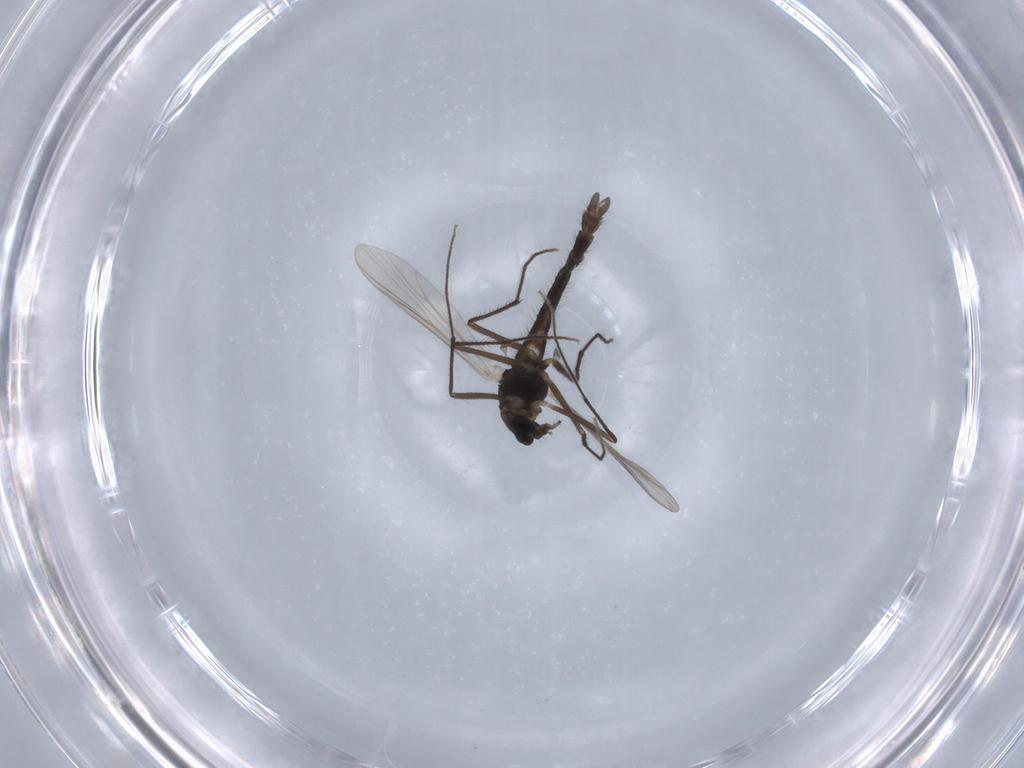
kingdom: Animalia
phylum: Arthropoda
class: Insecta
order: Diptera
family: Chironomidae
